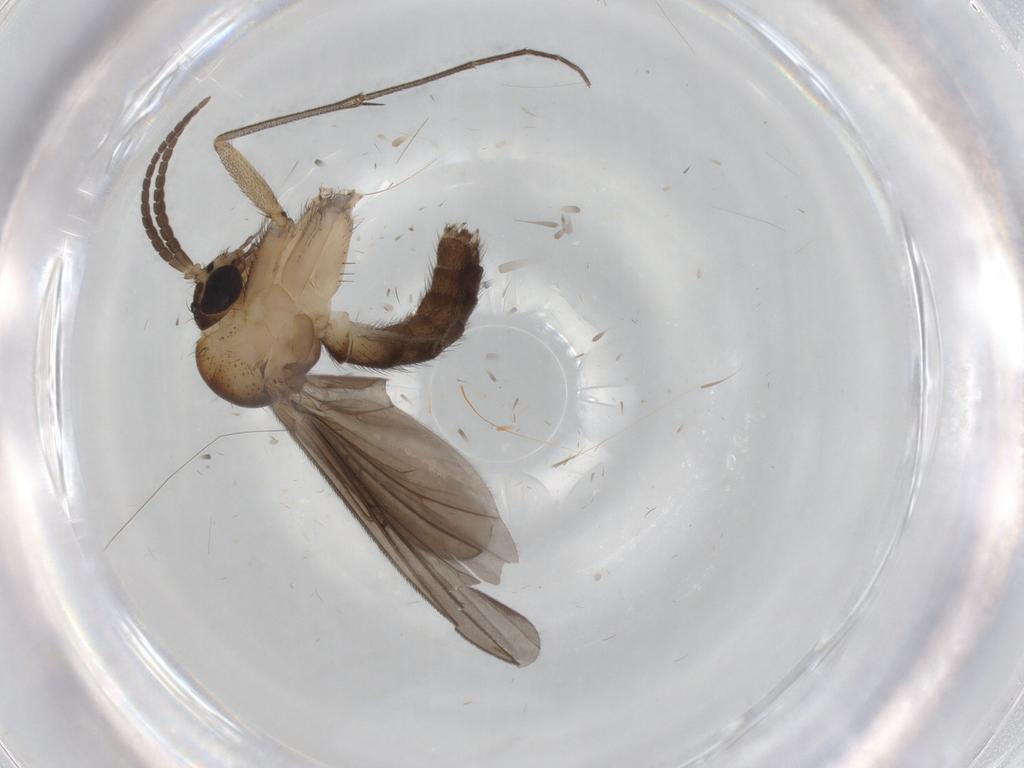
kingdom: Animalia
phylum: Arthropoda
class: Insecta
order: Diptera
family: Mycetophilidae
